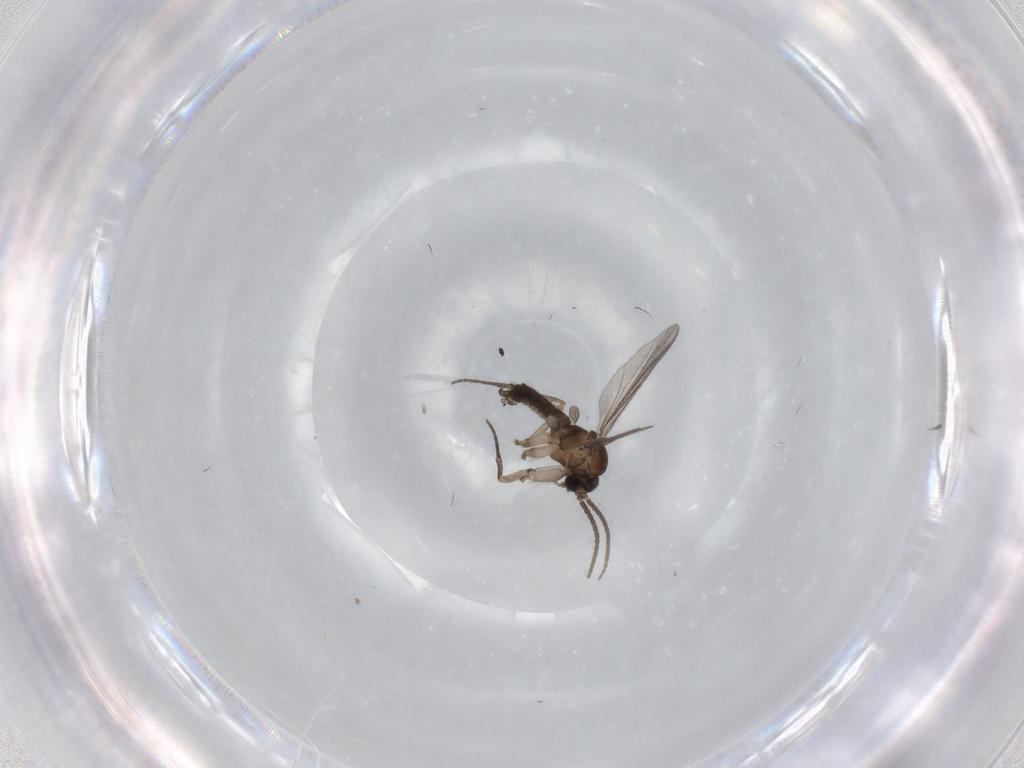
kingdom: Animalia
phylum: Arthropoda
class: Insecta
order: Diptera
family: Sciaridae
